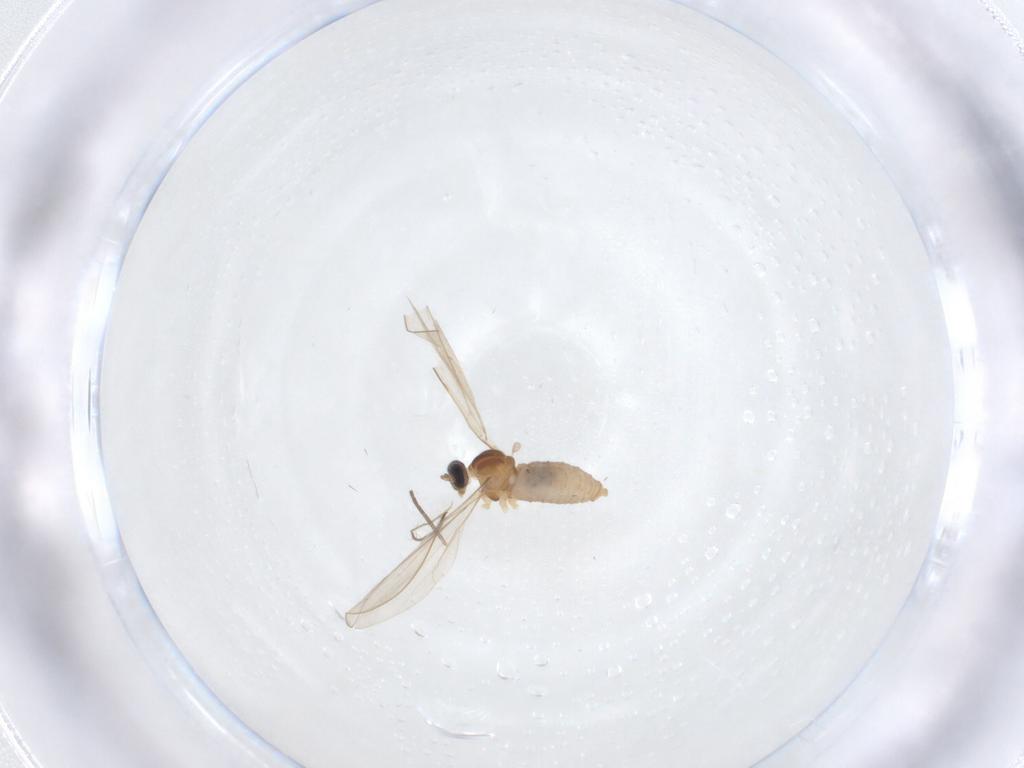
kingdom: Animalia
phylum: Arthropoda
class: Insecta
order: Diptera
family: Cecidomyiidae
